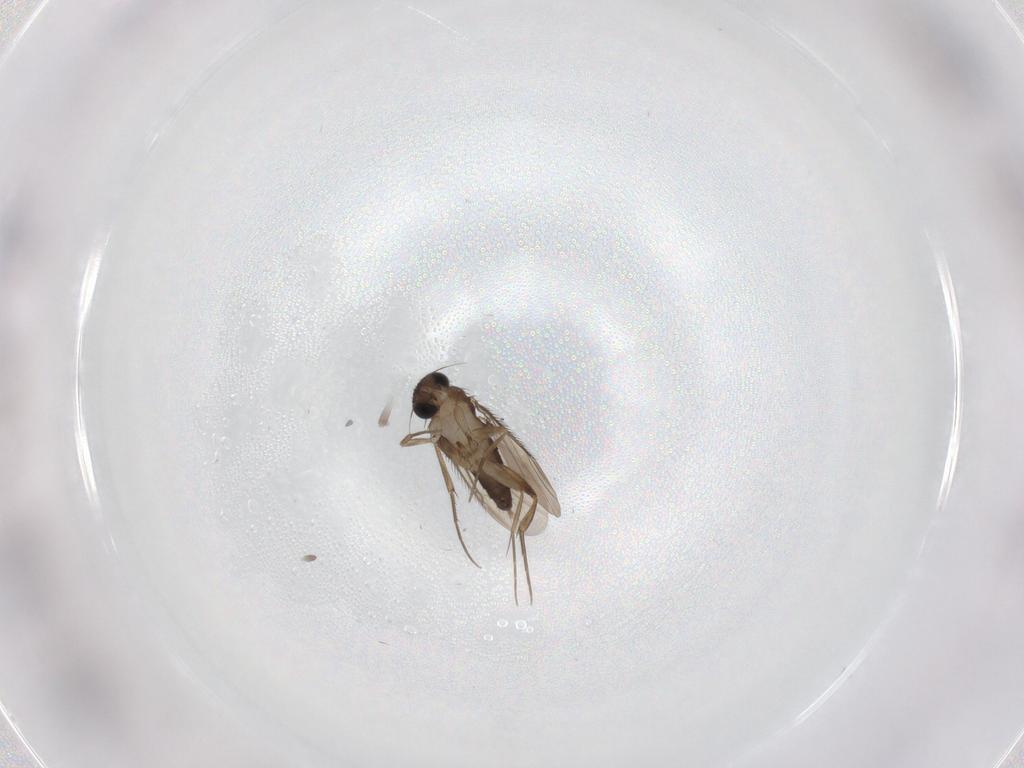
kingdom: Animalia
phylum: Arthropoda
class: Insecta
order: Diptera
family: Phoridae
